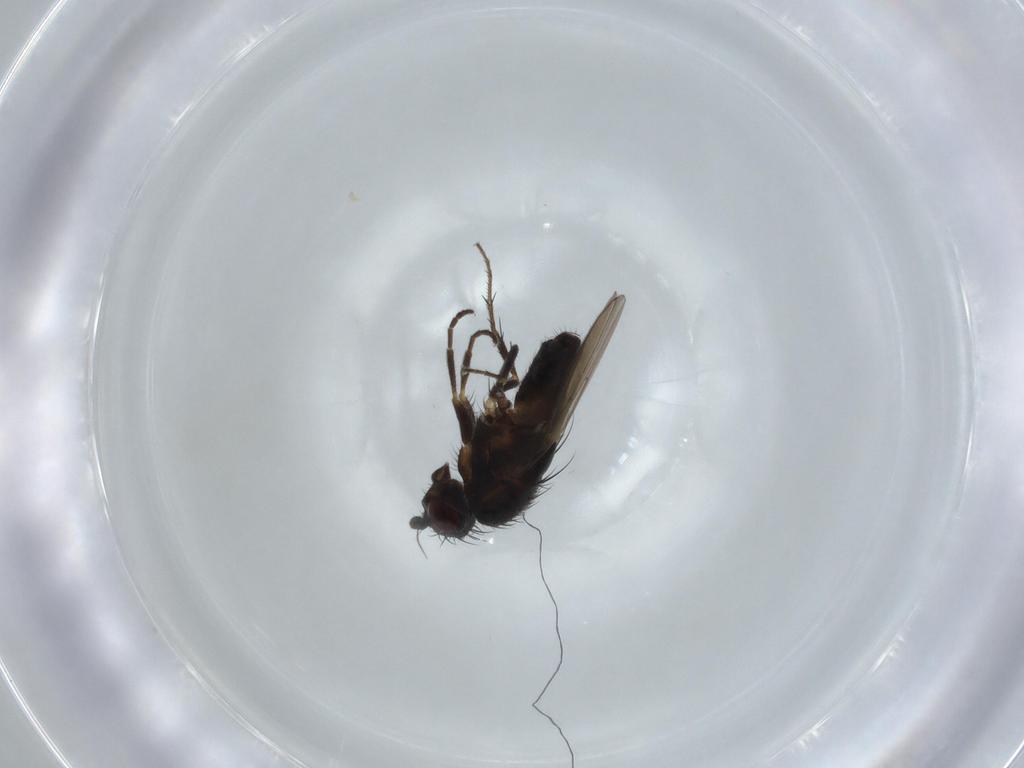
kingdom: Animalia
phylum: Arthropoda
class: Insecta
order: Diptera
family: Sphaeroceridae
